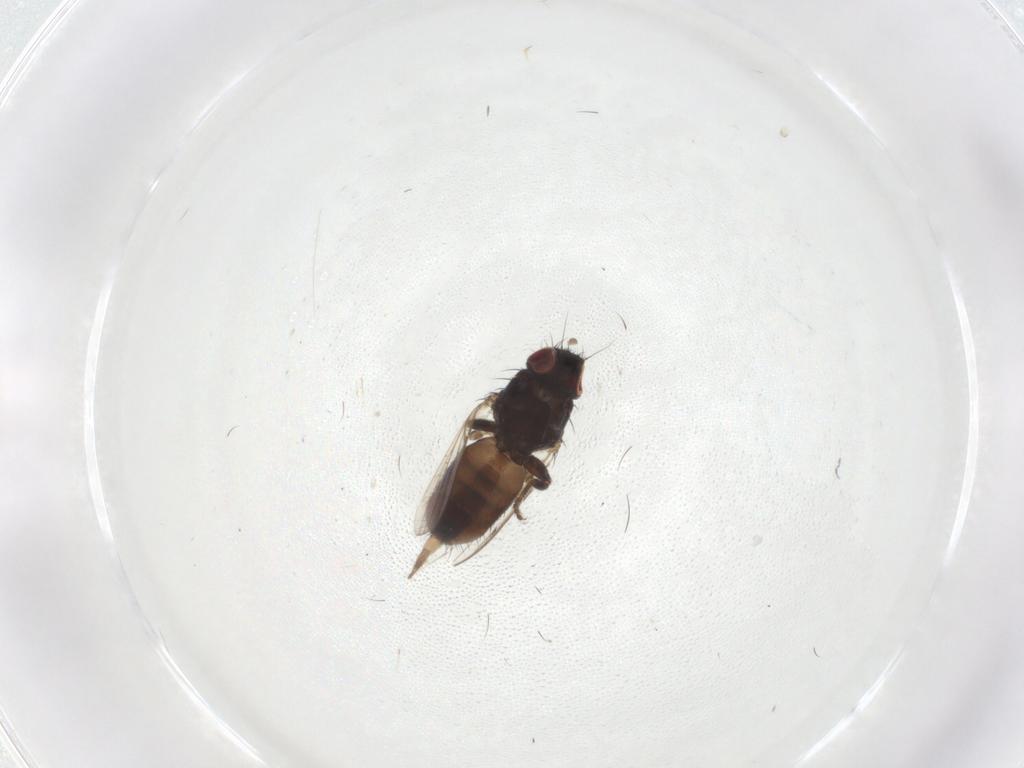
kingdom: Animalia
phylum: Arthropoda
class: Insecta
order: Diptera
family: Milichiidae
